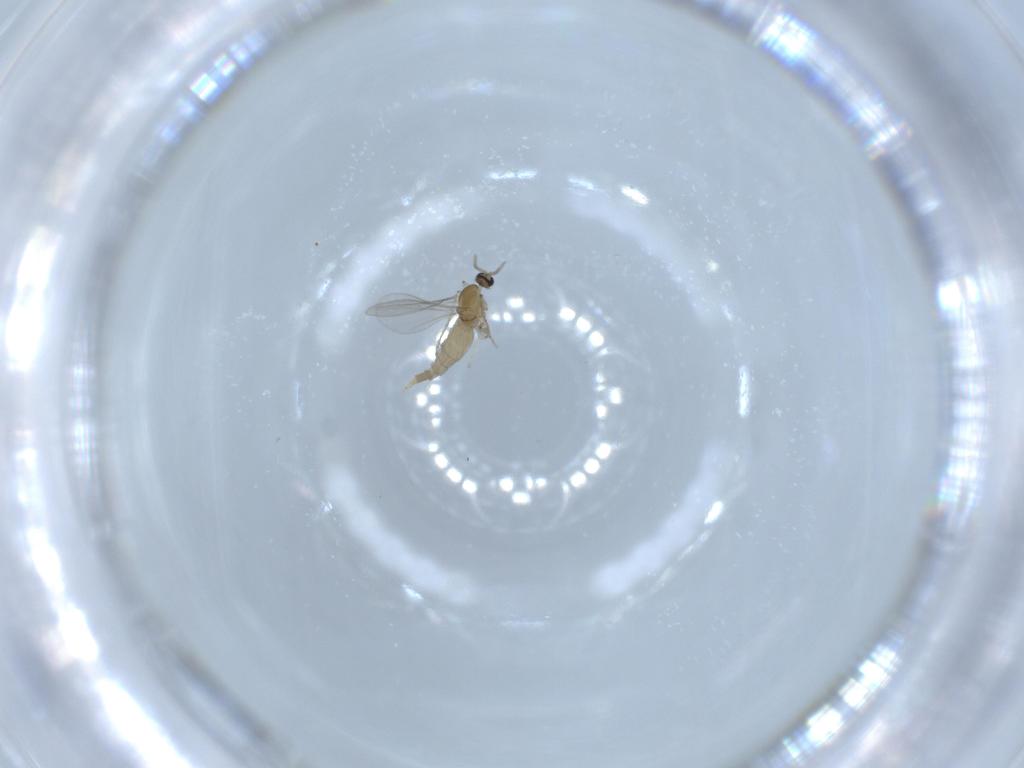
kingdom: Animalia
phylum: Arthropoda
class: Insecta
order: Diptera
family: Cecidomyiidae
